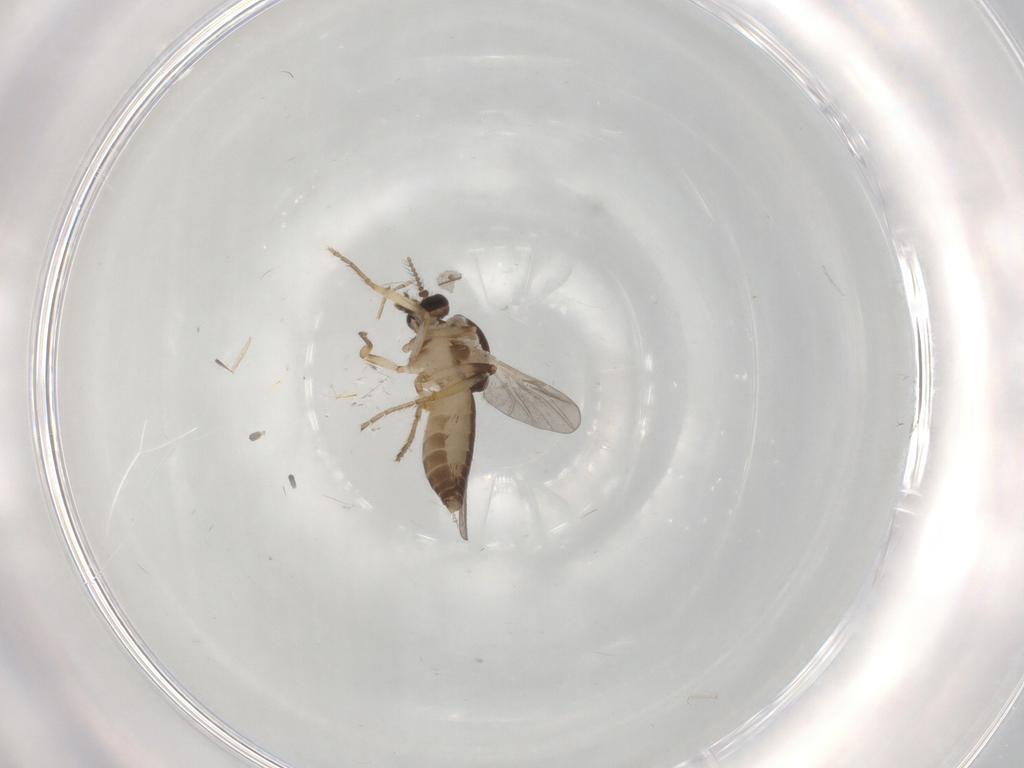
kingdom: Animalia
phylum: Arthropoda
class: Insecta
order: Diptera
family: Ceratopogonidae
